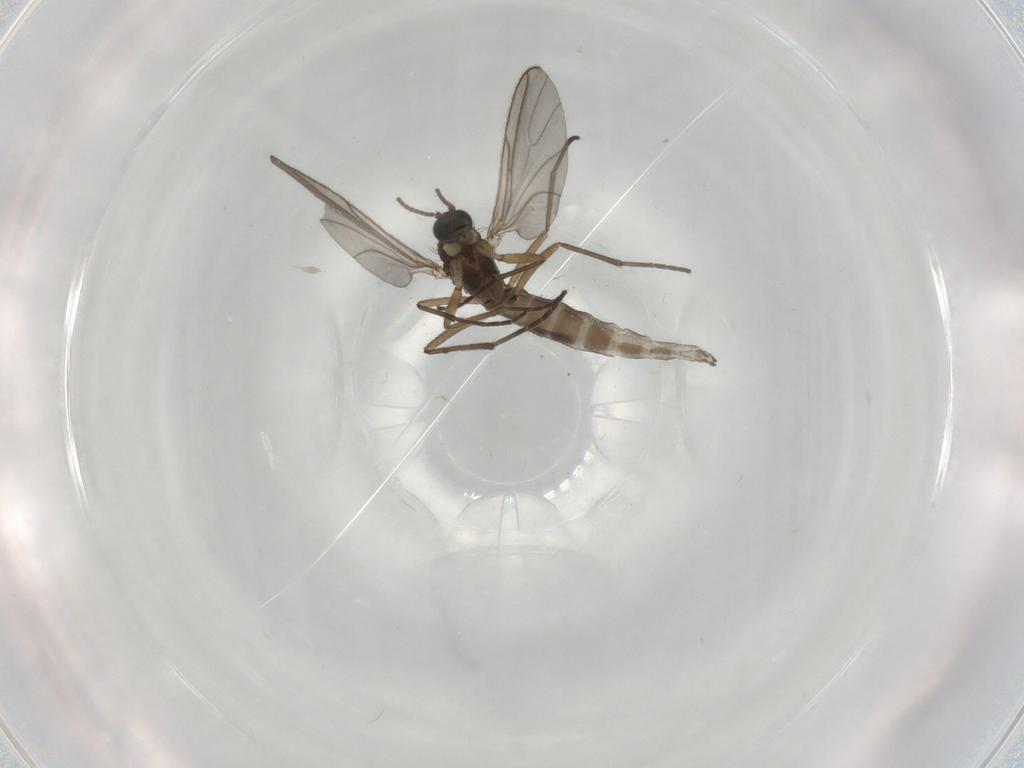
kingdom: Animalia
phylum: Arthropoda
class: Insecta
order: Diptera
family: Sciaridae
